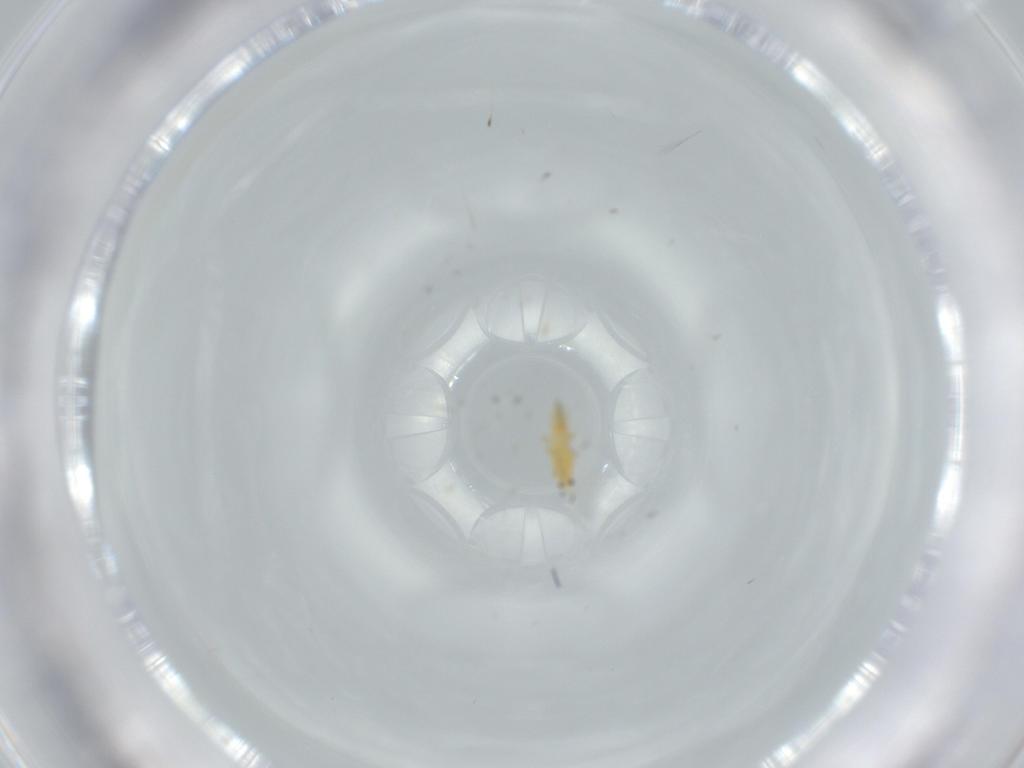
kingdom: Animalia
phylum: Arthropoda
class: Insecta
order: Thysanoptera
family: Thripidae
